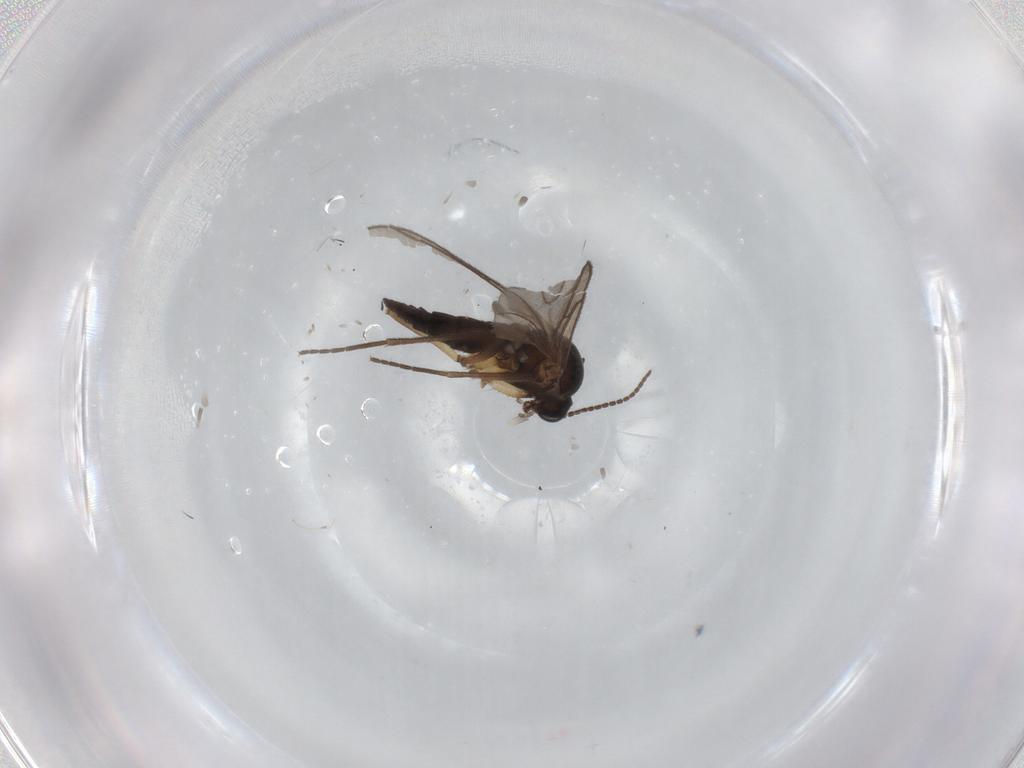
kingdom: Animalia
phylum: Arthropoda
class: Insecta
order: Diptera
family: Sciaridae
